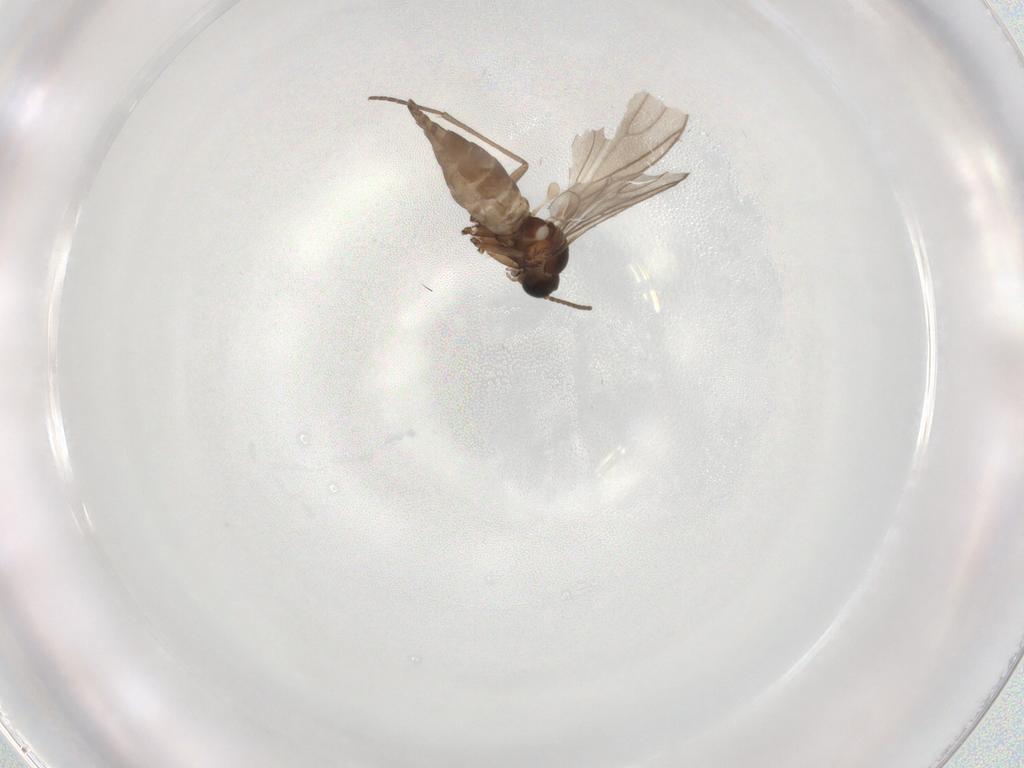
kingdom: Animalia
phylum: Arthropoda
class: Insecta
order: Diptera
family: Sciaridae
